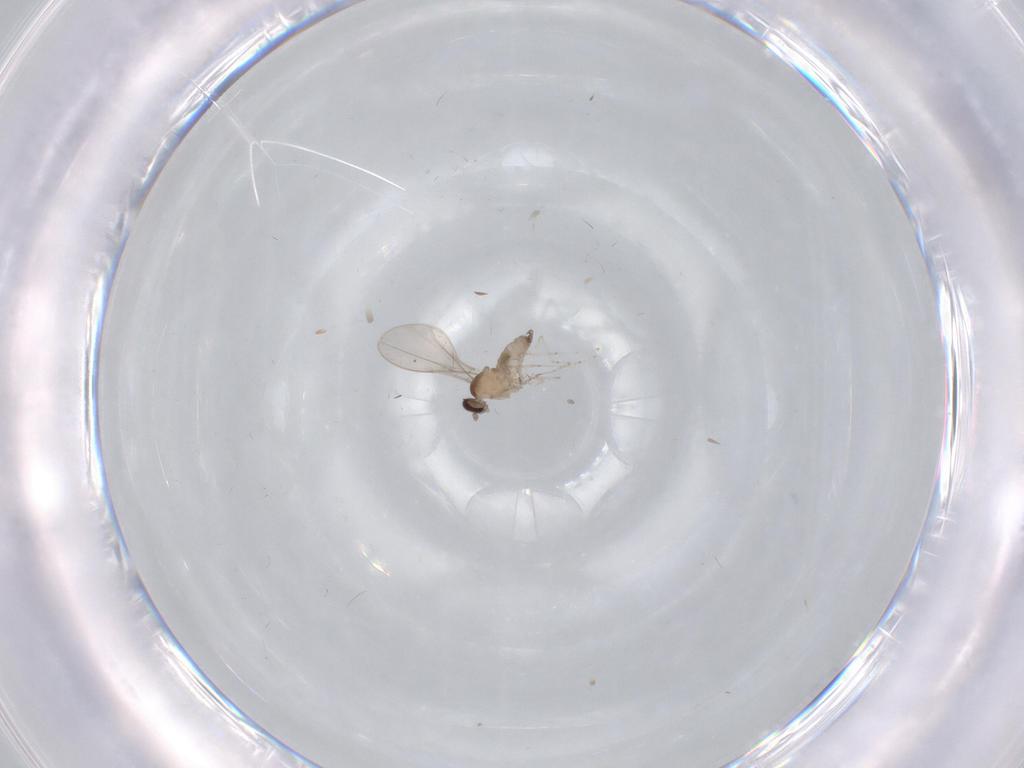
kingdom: Animalia
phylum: Arthropoda
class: Insecta
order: Diptera
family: Cecidomyiidae
